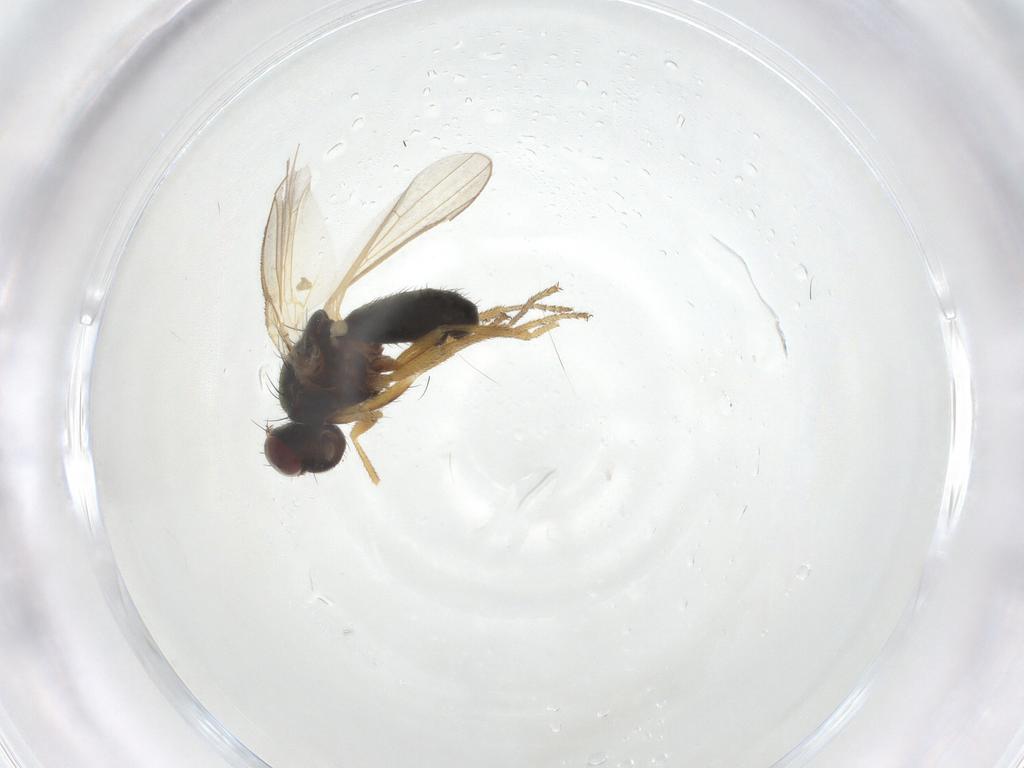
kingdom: Animalia
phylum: Arthropoda
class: Insecta
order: Diptera
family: Heleomyzidae
